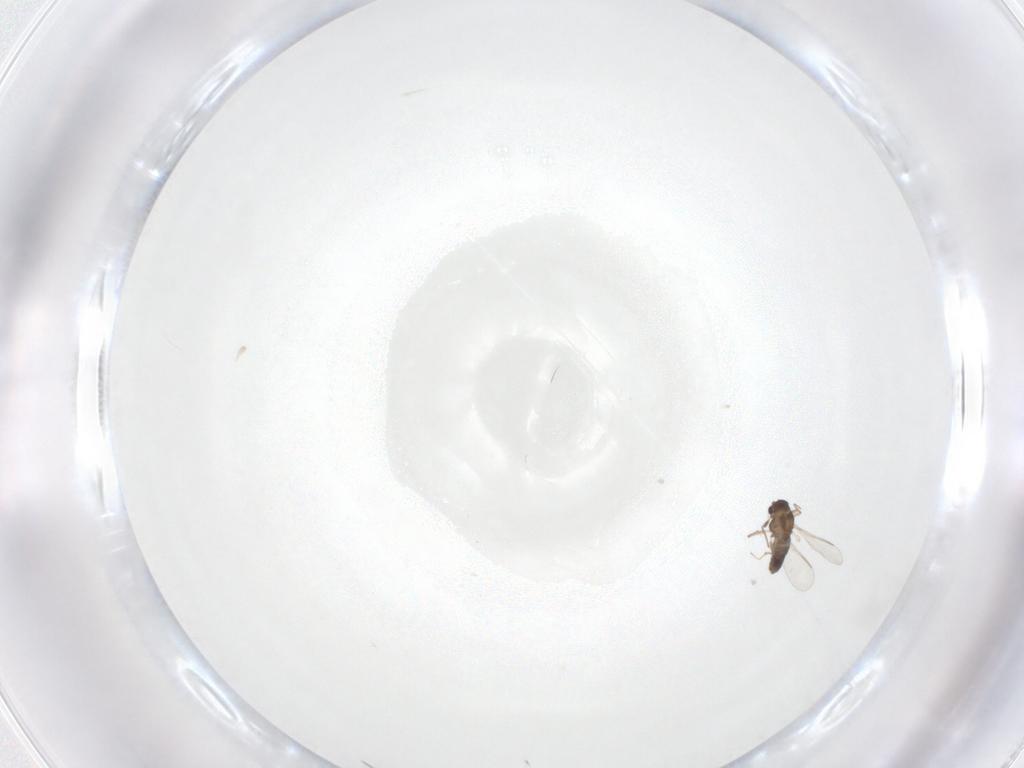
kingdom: Animalia
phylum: Arthropoda
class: Insecta
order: Diptera
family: Chironomidae
